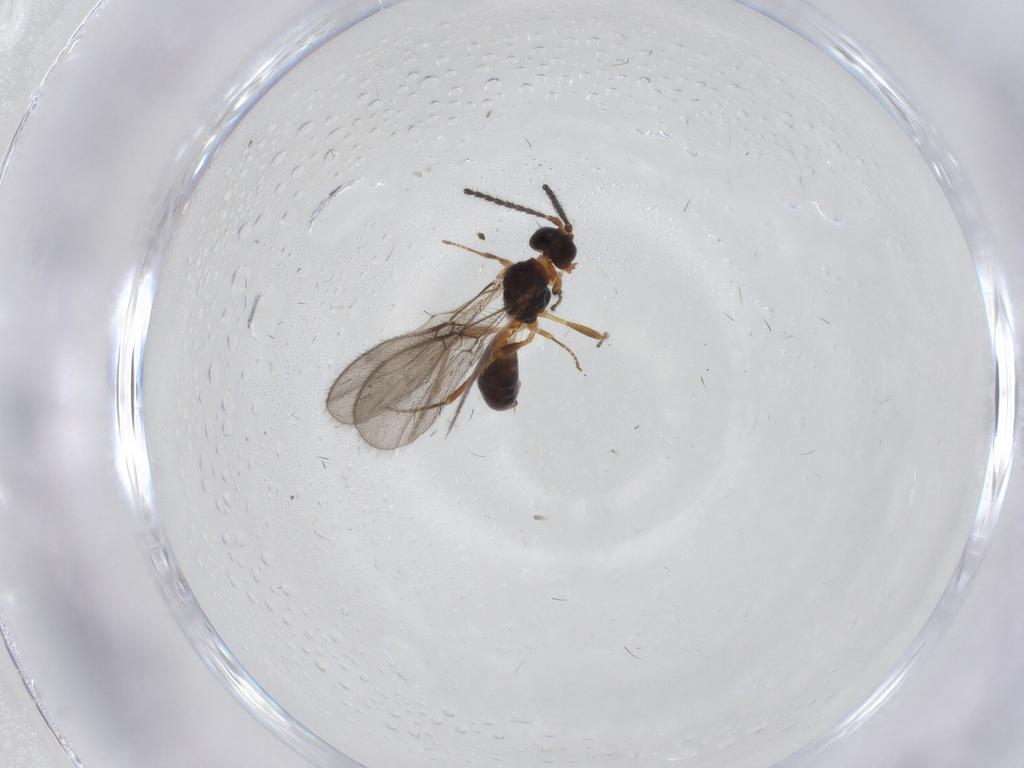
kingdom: Animalia
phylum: Arthropoda
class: Insecta
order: Hymenoptera
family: Braconidae
